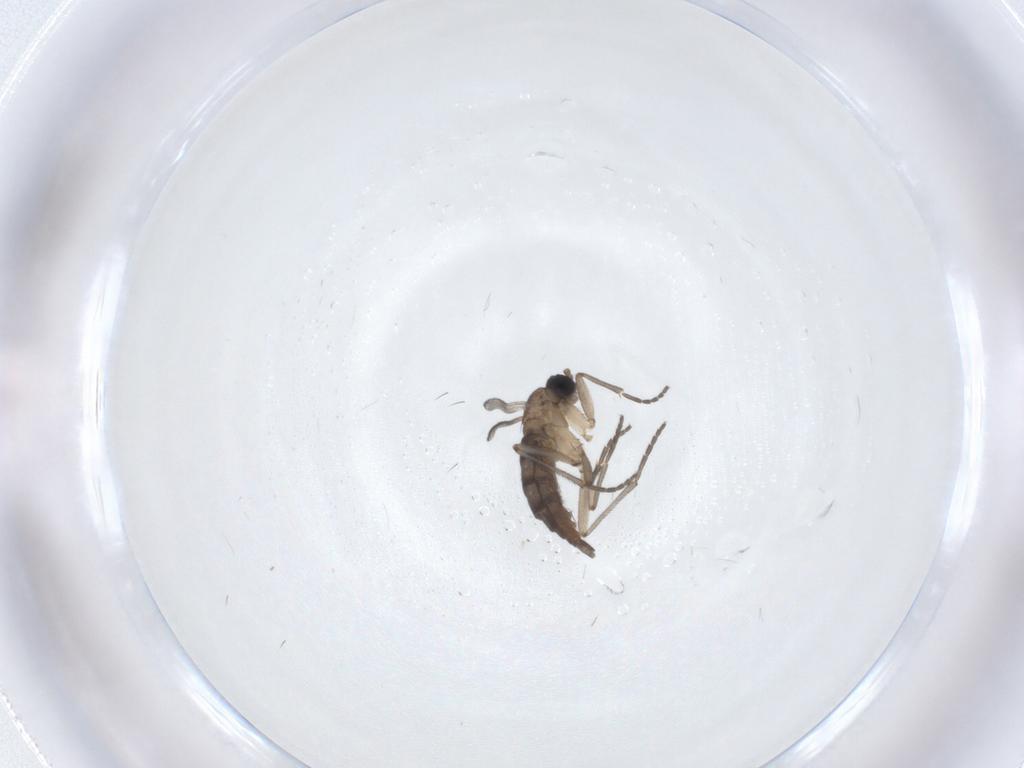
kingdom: Animalia
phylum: Arthropoda
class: Insecta
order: Diptera
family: Sciaridae
